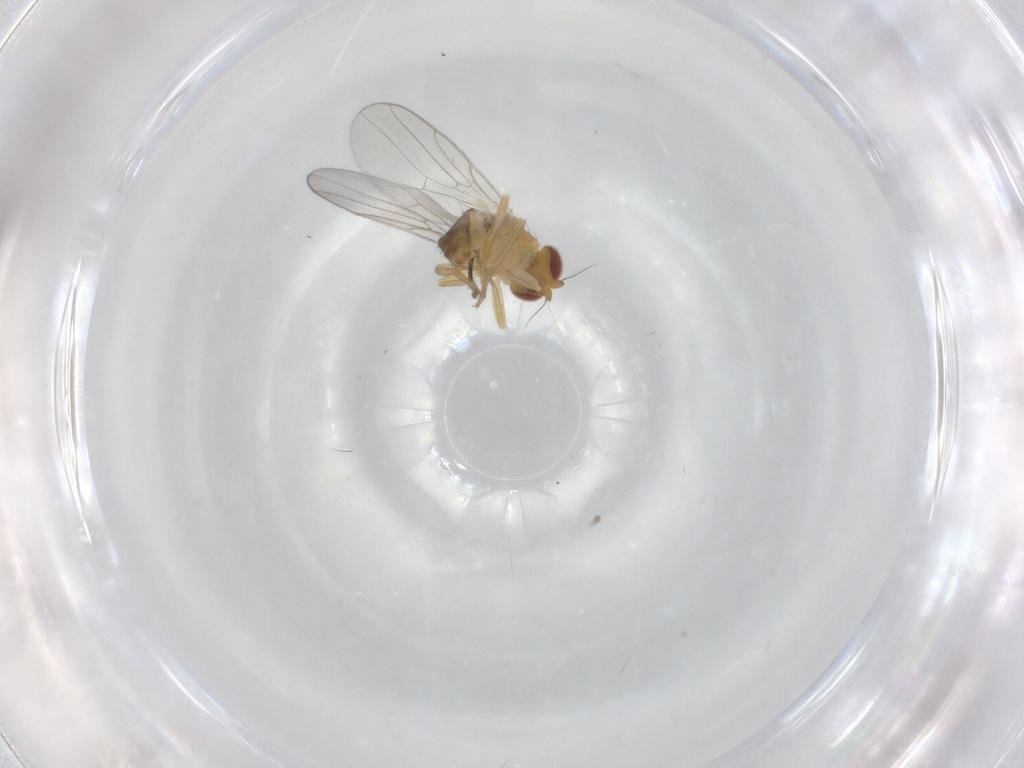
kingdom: Animalia
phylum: Arthropoda
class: Insecta
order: Diptera
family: Chloropidae
